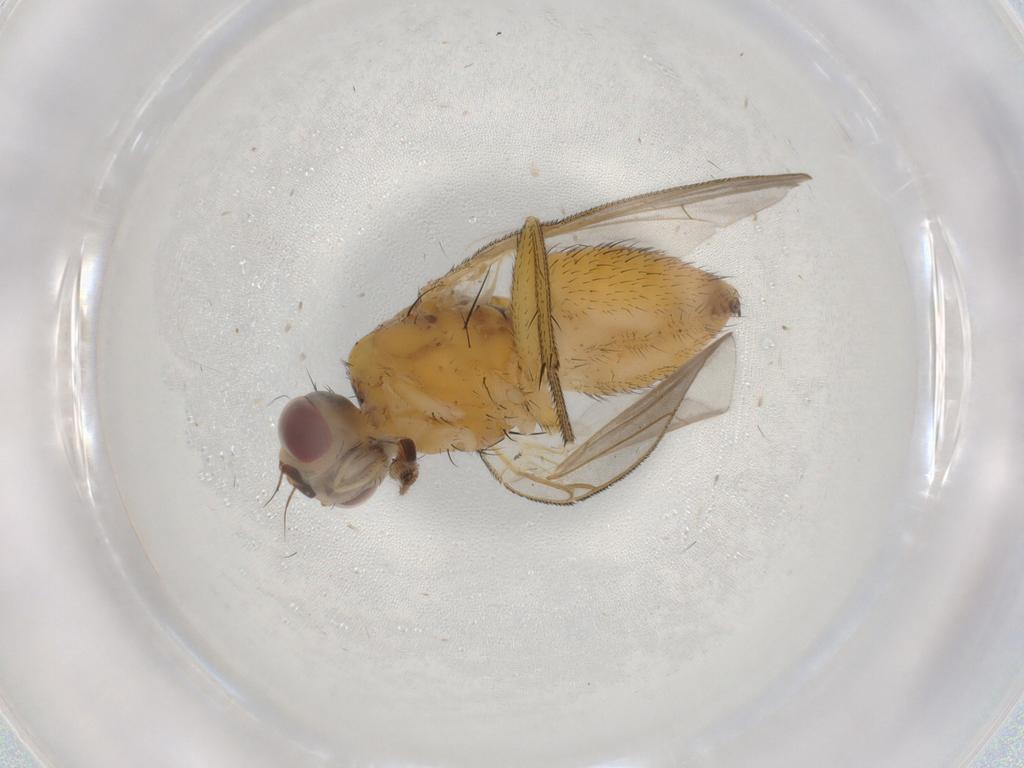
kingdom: Animalia
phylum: Arthropoda
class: Insecta
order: Diptera
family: Muscidae
